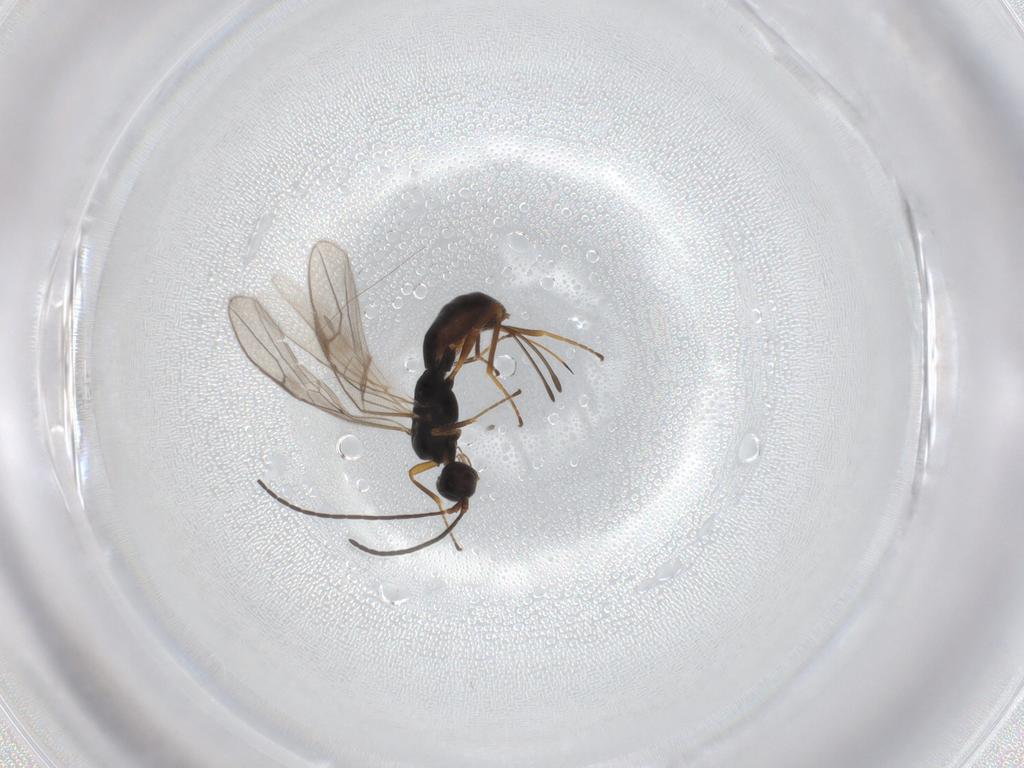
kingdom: Animalia
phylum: Arthropoda
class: Insecta
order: Hymenoptera
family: Braconidae
